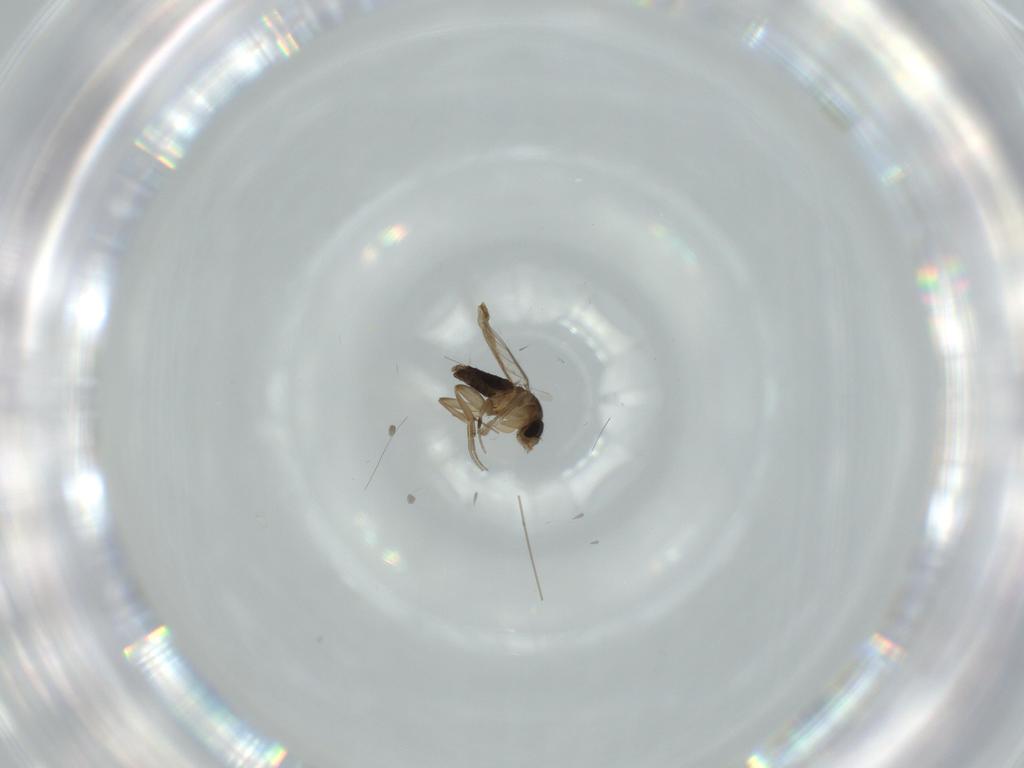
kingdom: Animalia
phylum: Arthropoda
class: Insecta
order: Diptera
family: Phoridae
